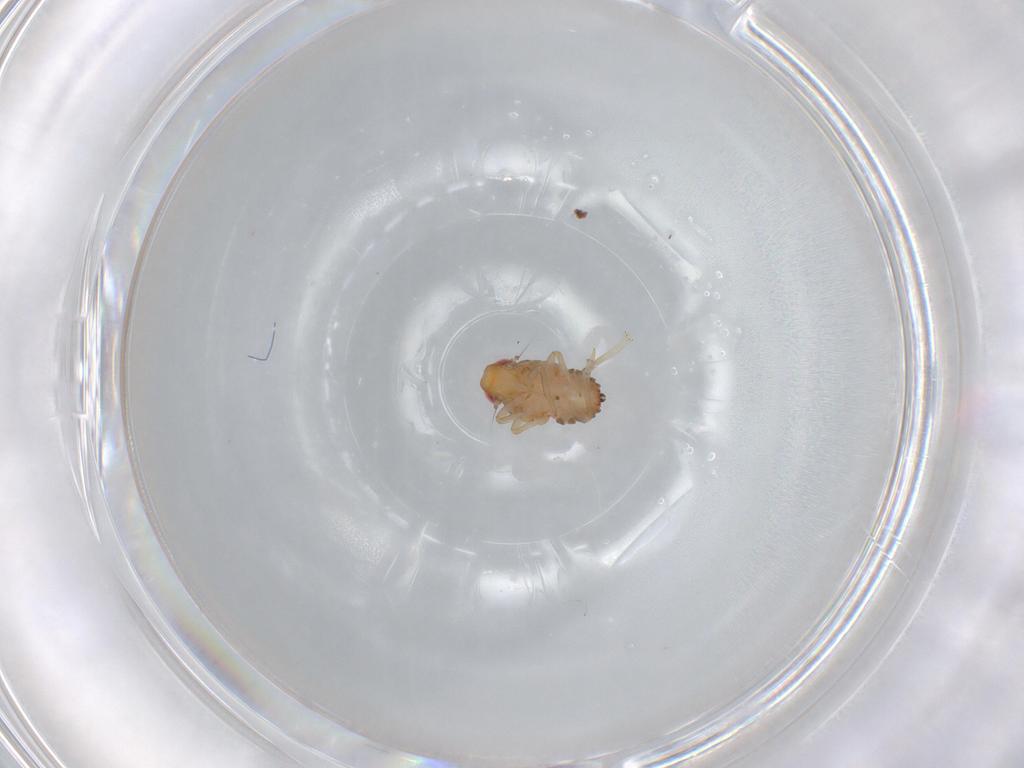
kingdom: Animalia
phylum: Arthropoda
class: Insecta
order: Hemiptera
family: Issidae
